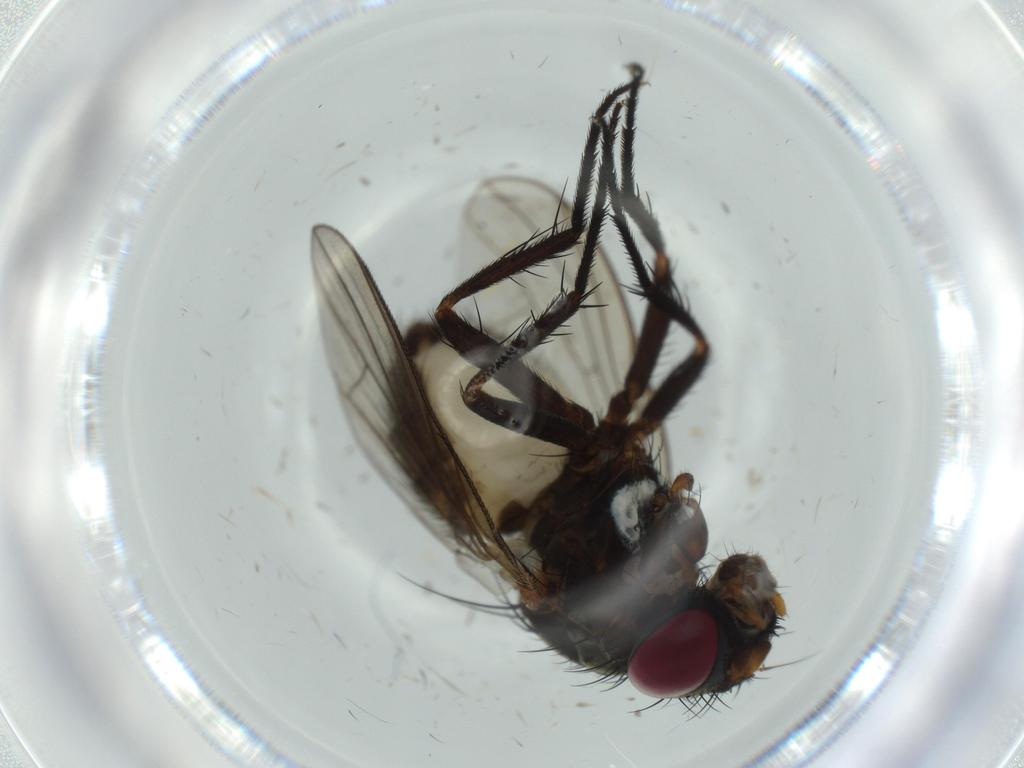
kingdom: Animalia
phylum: Arthropoda
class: Insecta
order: Diptera
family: Phoridae
